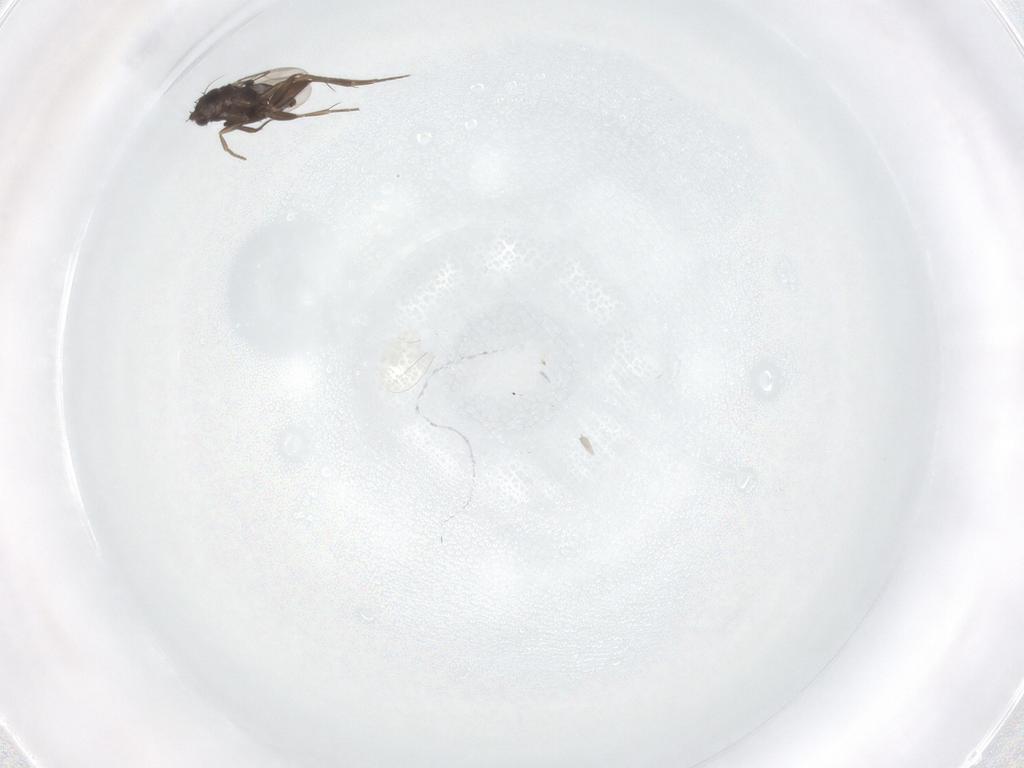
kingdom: Animalia
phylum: Arthropoda
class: Insecta
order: Diptera
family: Phoridae
